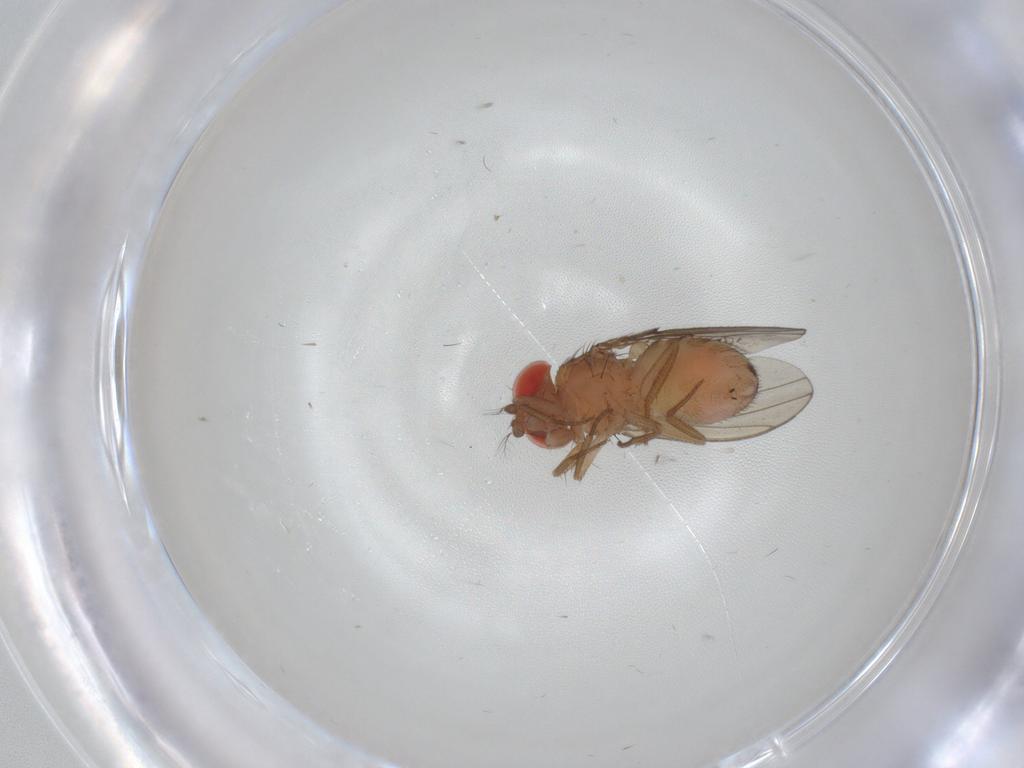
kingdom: Animalia
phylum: Arthropoda
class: Insecta
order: Diptera
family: Drosophilidae
